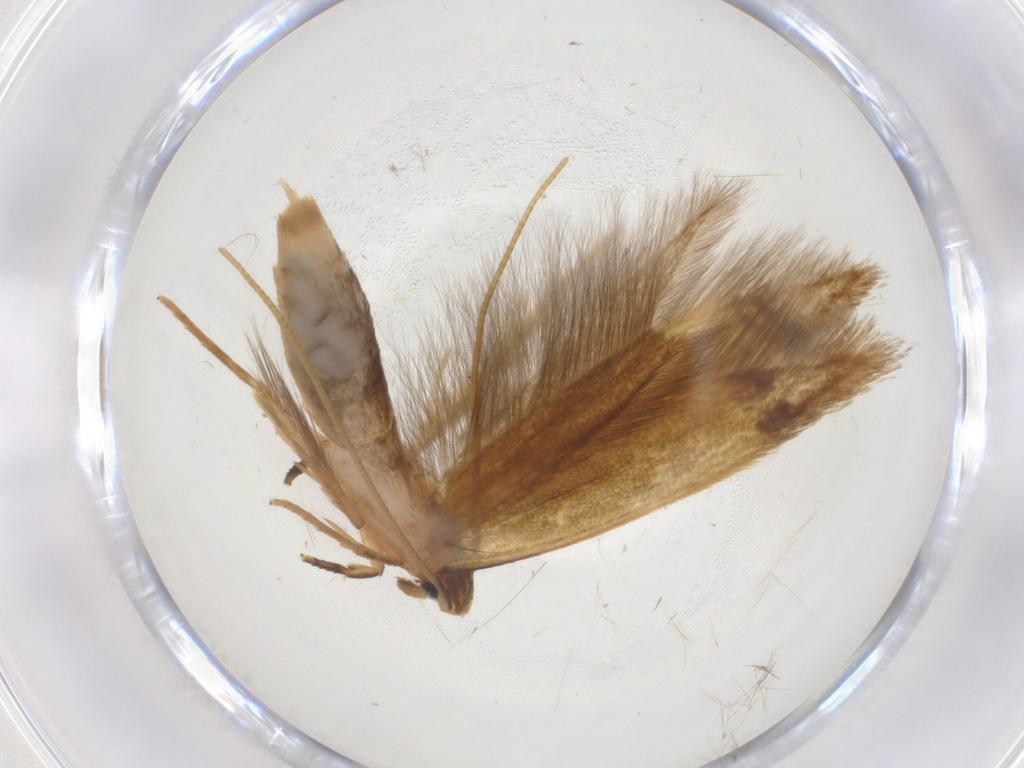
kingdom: Animalia
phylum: Arthropoda
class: Insecta
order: Lepidoptera
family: Tineidae
